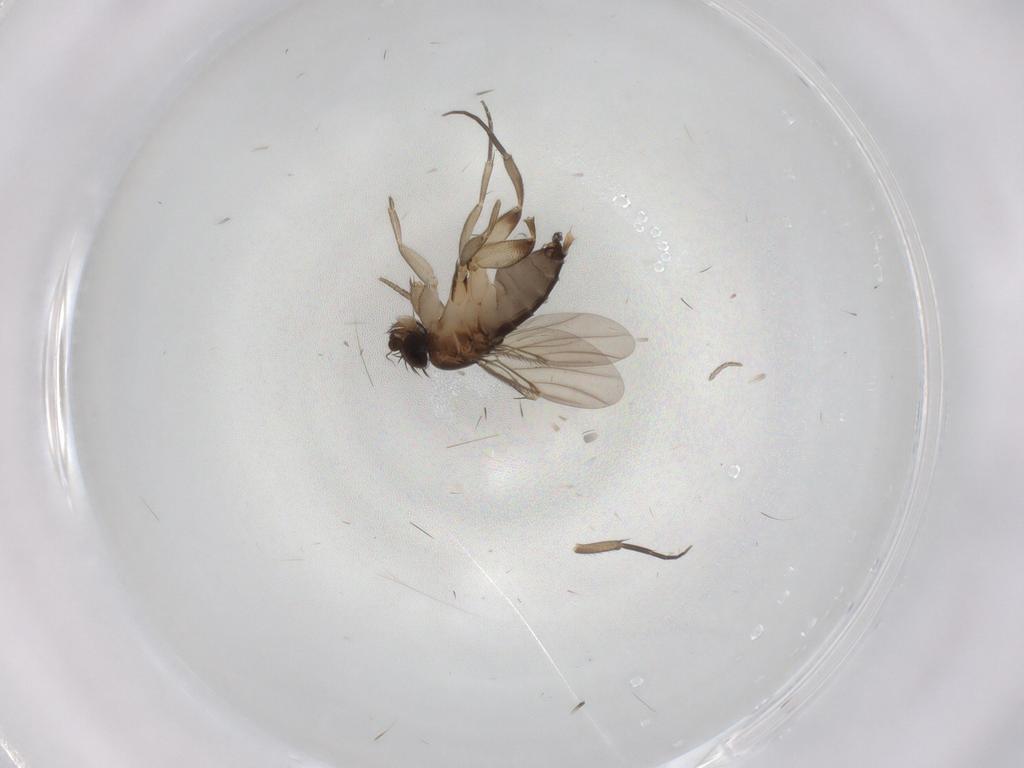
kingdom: Animalia
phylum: Arthropoda
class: Insecta
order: Diptera
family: Phoridae
